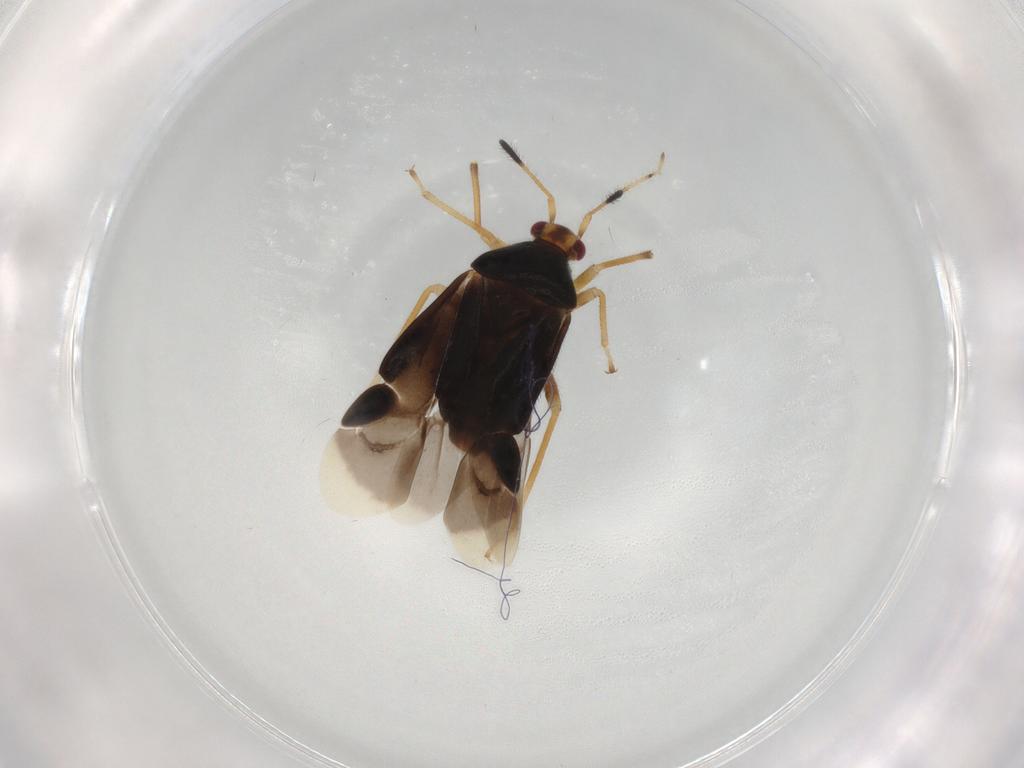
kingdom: Animalia
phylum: Arthropoda
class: Insecta
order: Hemiptera
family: Miridae
